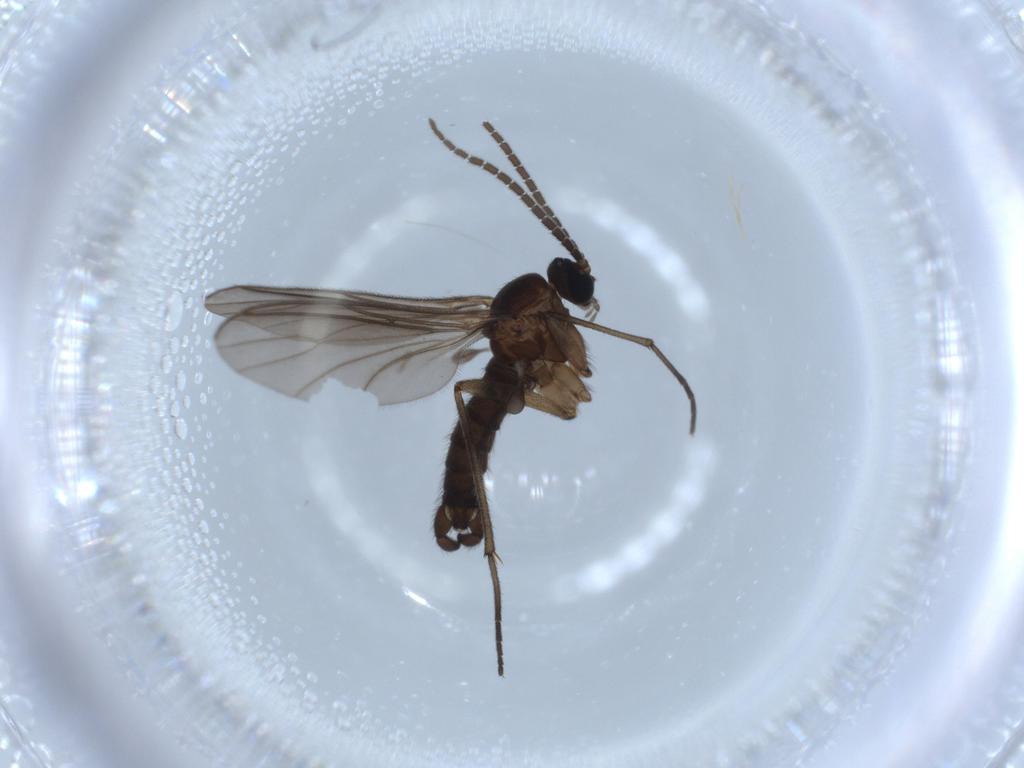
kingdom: Animalia
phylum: Arthropoda
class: Insecta
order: Diptera
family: Sciaridae
